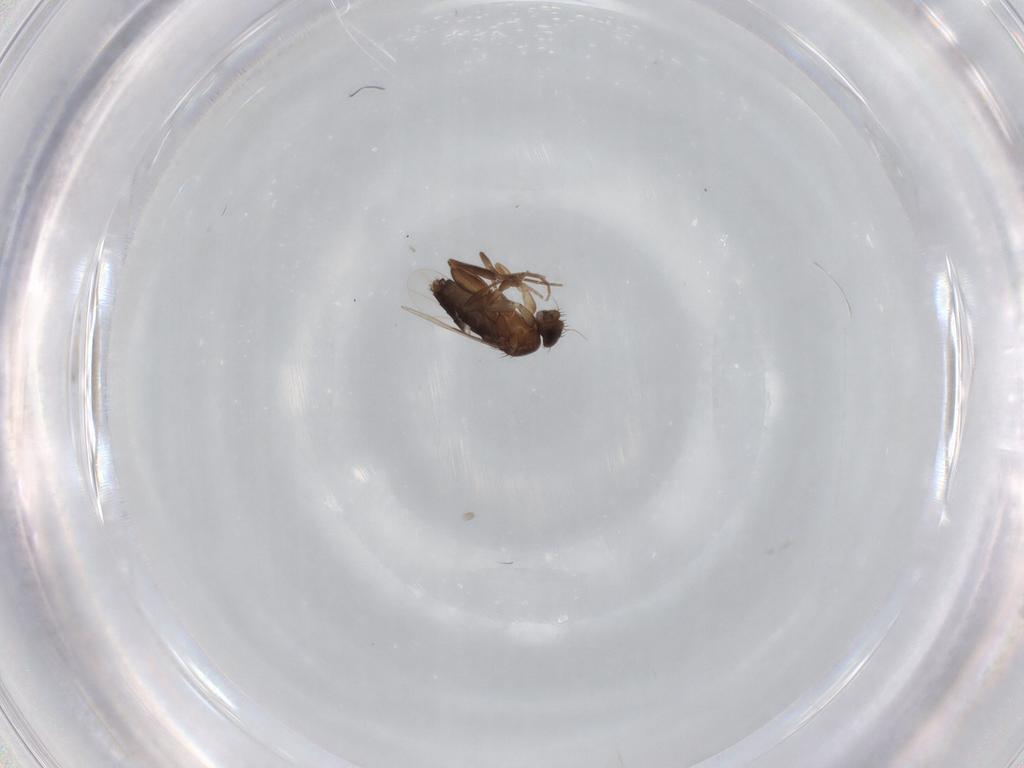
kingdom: Animalia
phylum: Arthropoda
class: Insecta
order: Diptera
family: Phoridae
